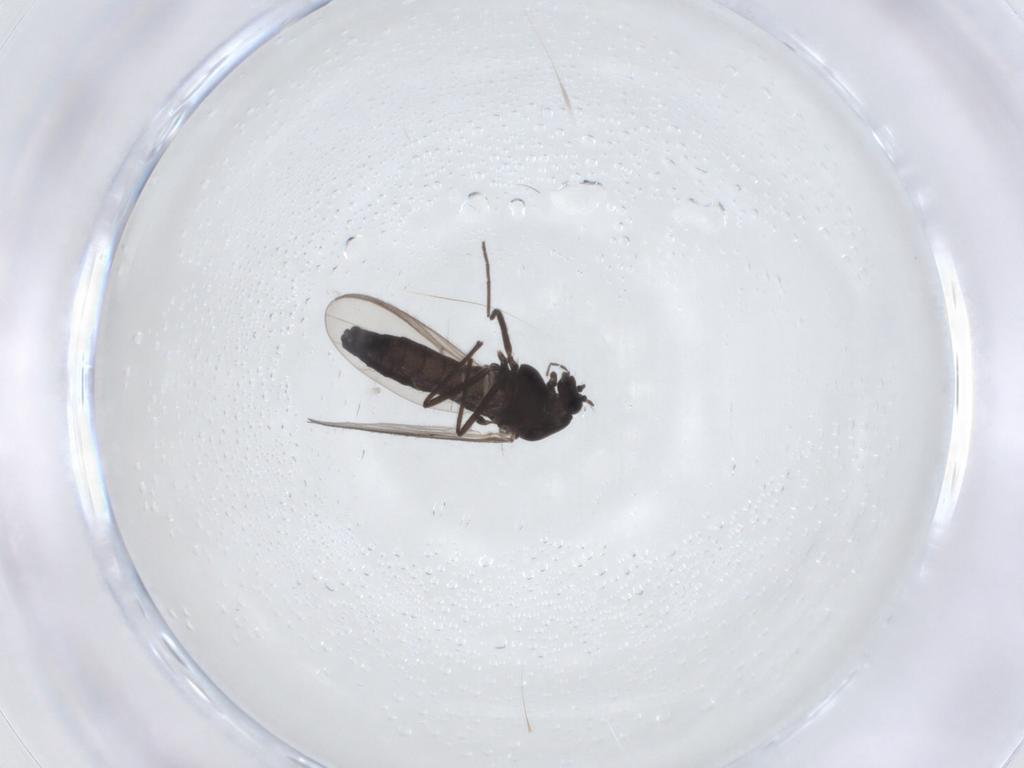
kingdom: Animalia
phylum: Arthropoda
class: Insecta
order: Diptera
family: Chironomidae
